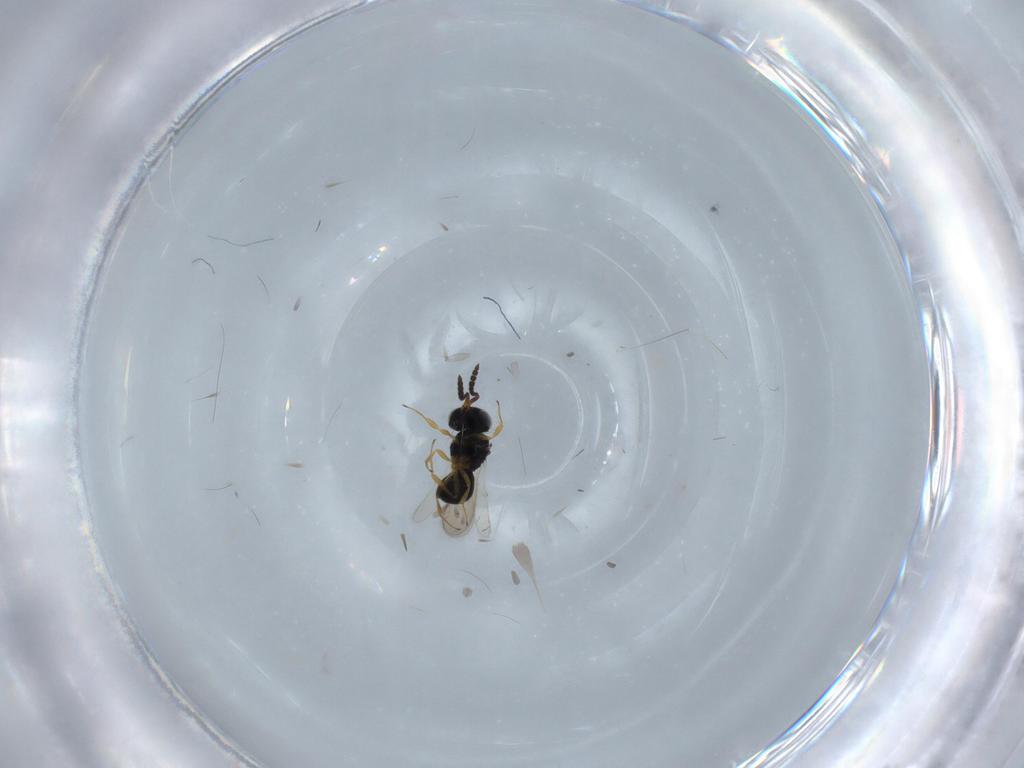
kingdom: Animalia
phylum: Arthropoda
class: Insecta
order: Hymenoptera
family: Scelionidae
